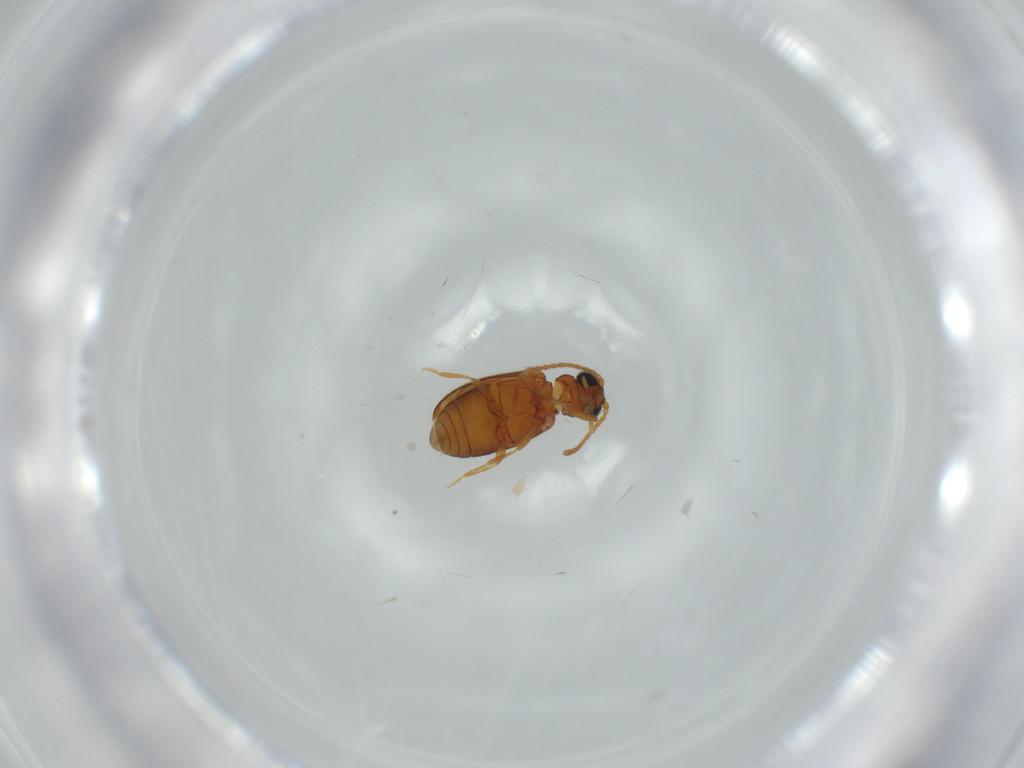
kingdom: Animalia
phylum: Arthropoda
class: Insecta
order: Coleoptera
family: Aderidae
